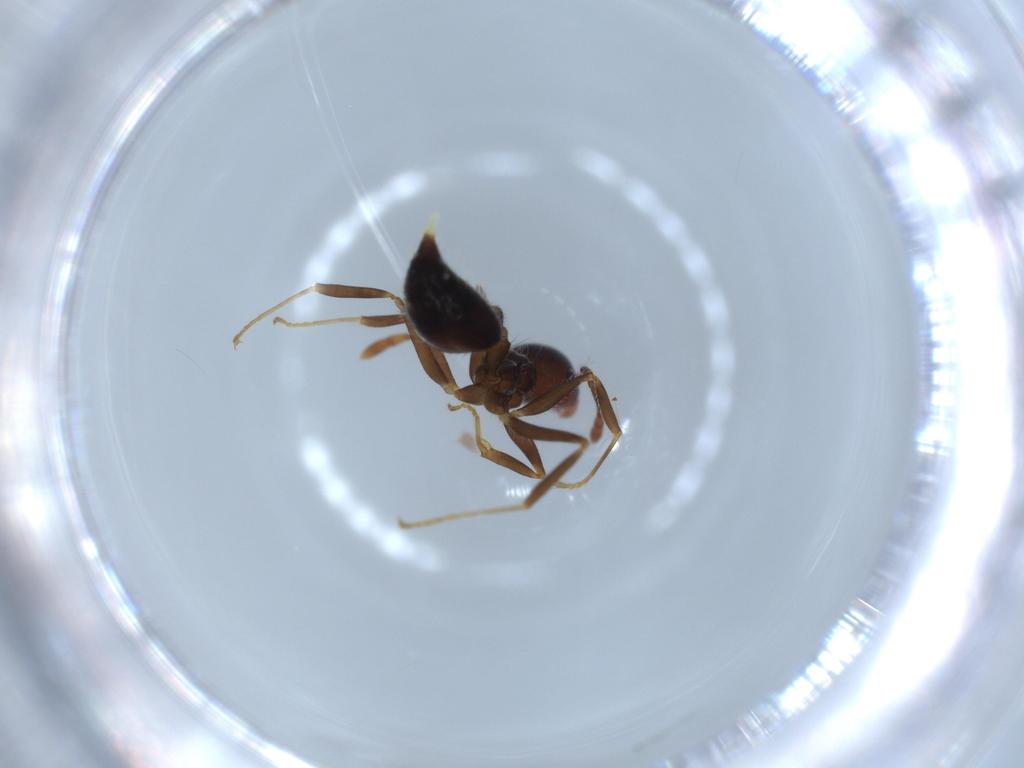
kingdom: Animalia
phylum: Arthropoda
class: Insecta
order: Hymenoptera
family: Formicidae
